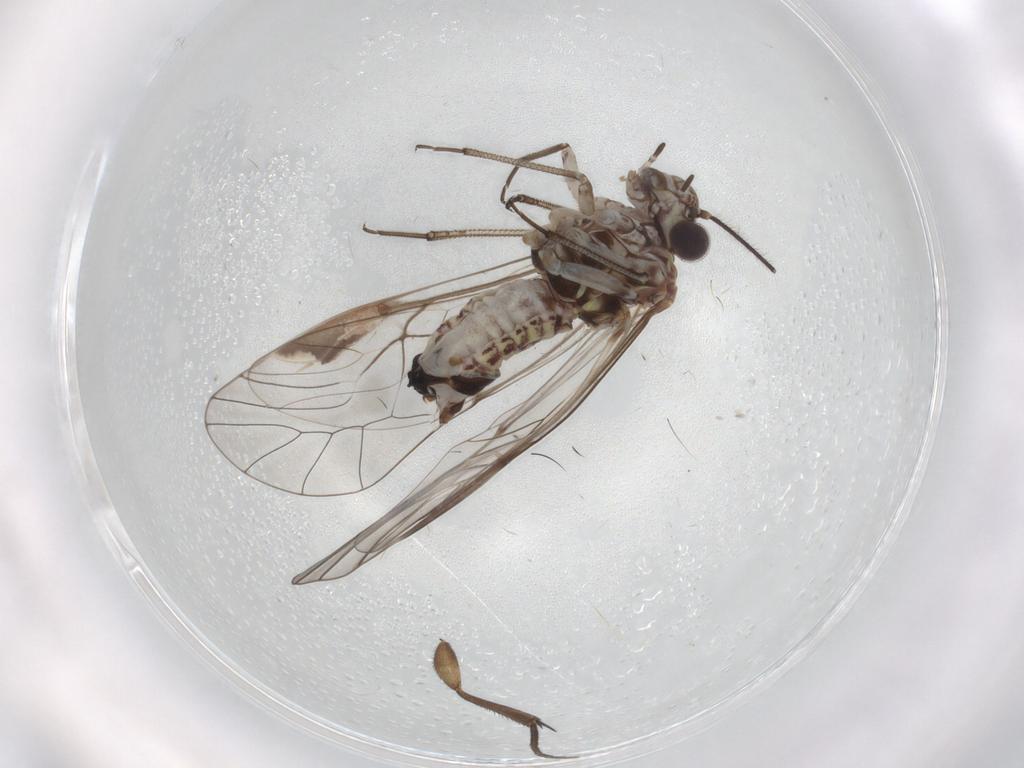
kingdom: Animalia
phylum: Arthropoda
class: Insecta
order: Psocodea
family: Psocidae
